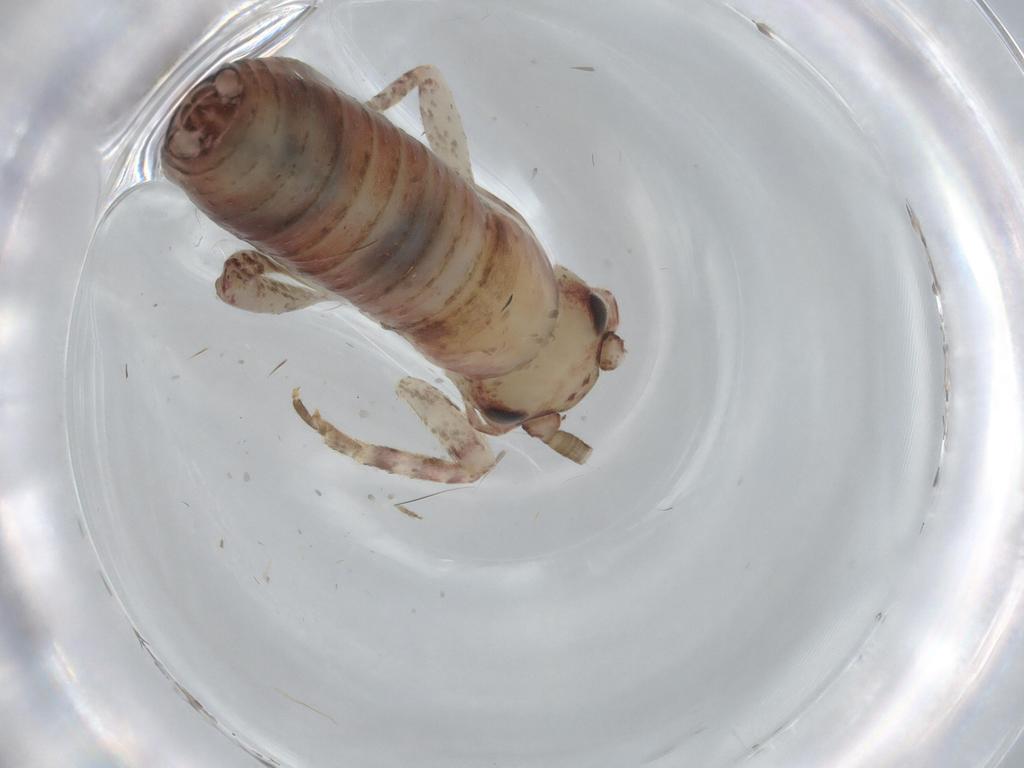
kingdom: Animalia
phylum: Arthropoda
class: Insecta
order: Orthoptera
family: Mogoplistidae
